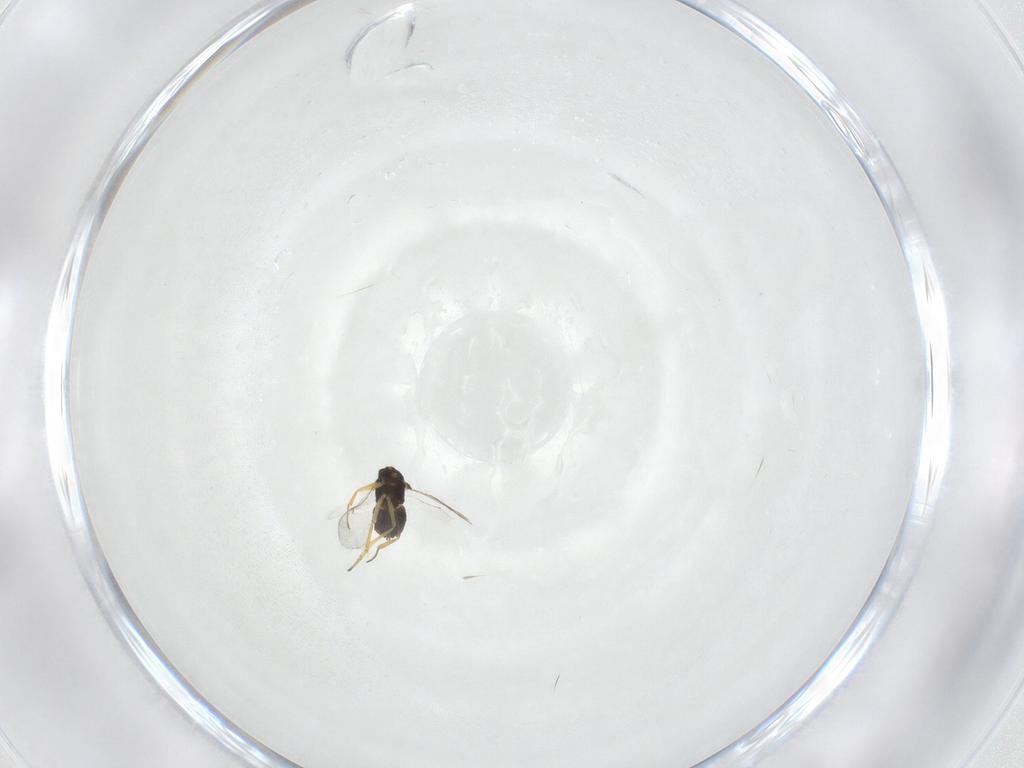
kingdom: Animalia
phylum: Arthropoda
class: Insecta
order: Hymenoptera
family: Encyrtidae
